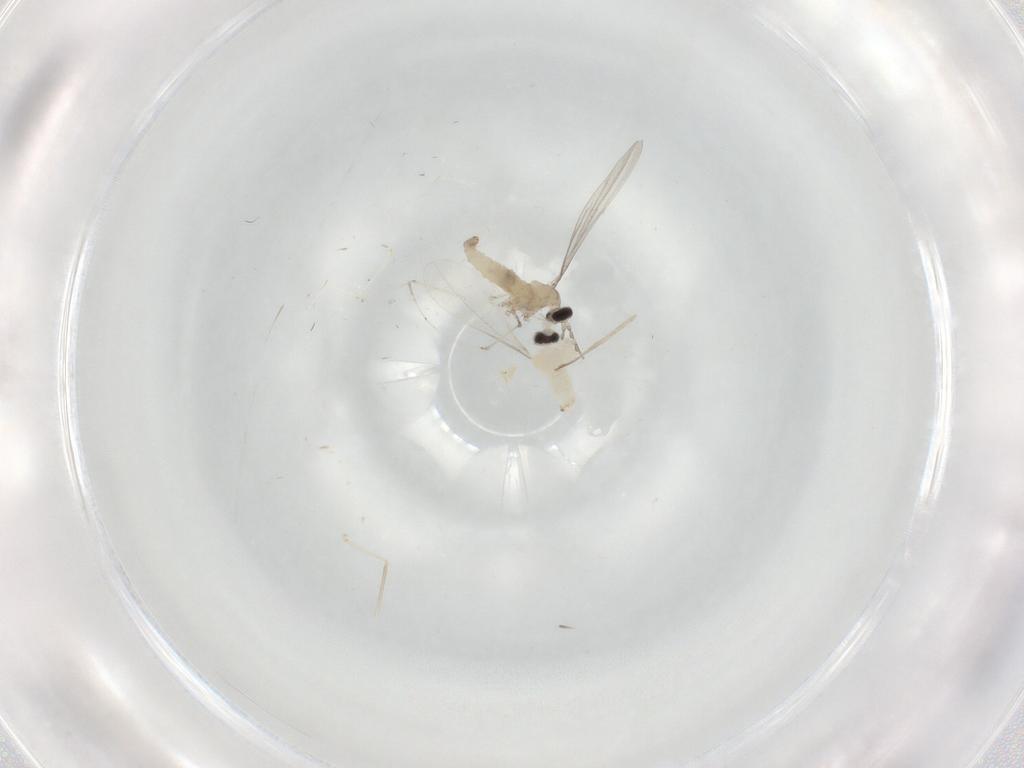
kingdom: Animalia
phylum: Arthropoda
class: Insecta
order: Diptera
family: Cecidomyiidae
